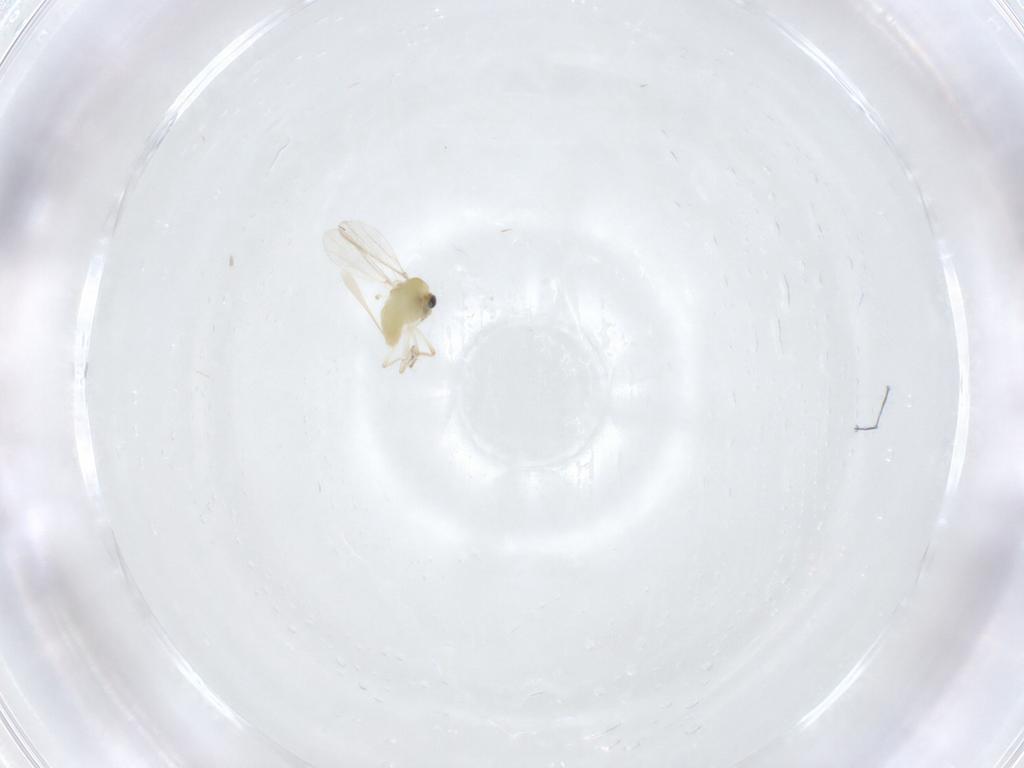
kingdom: Animalia
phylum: Arthropoda
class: Insecta
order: Diptera
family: Chironomidae
